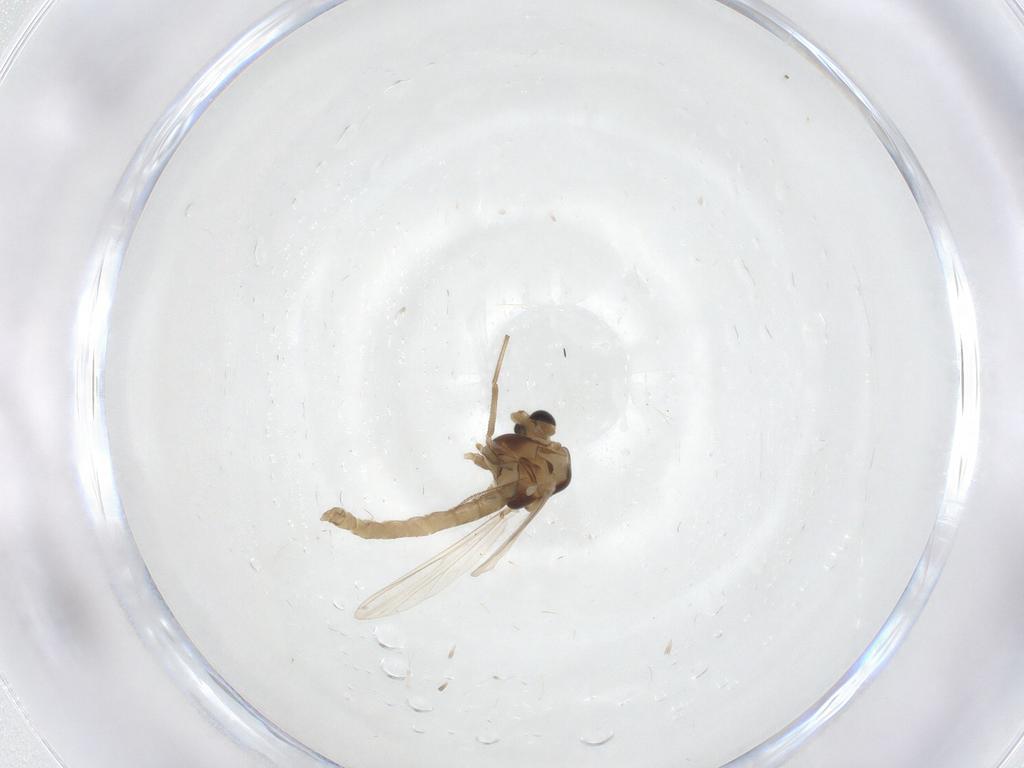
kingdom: Animalia
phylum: Arthropoda
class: Insecta
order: Diptera
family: Chironomidae
